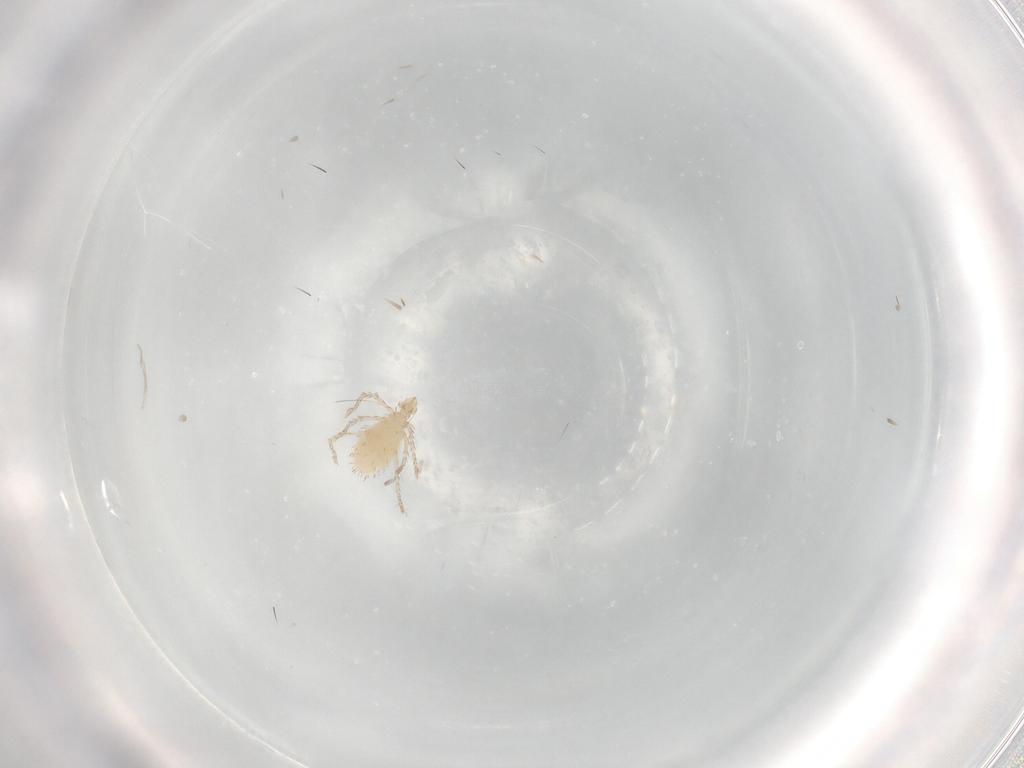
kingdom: Animalia
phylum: Arthropoda
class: Arachnida
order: Trombidiformes
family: Erythraeidae
